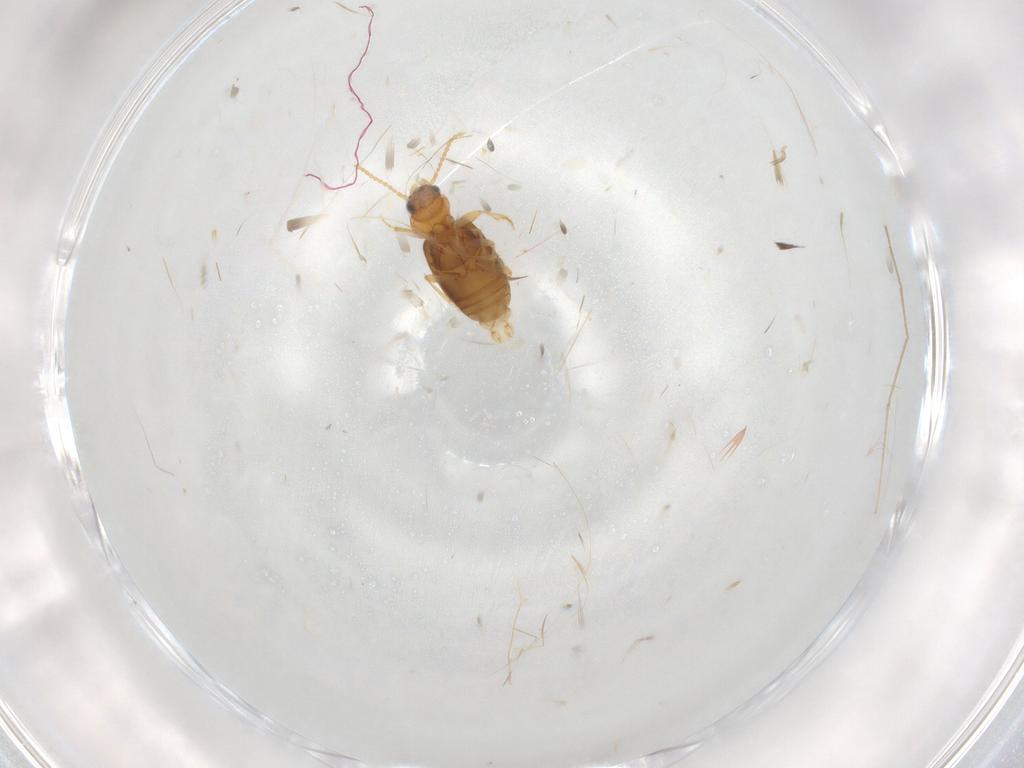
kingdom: Animalia
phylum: Arthropoda
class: Insecta
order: Coleoptera
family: Carabidae
